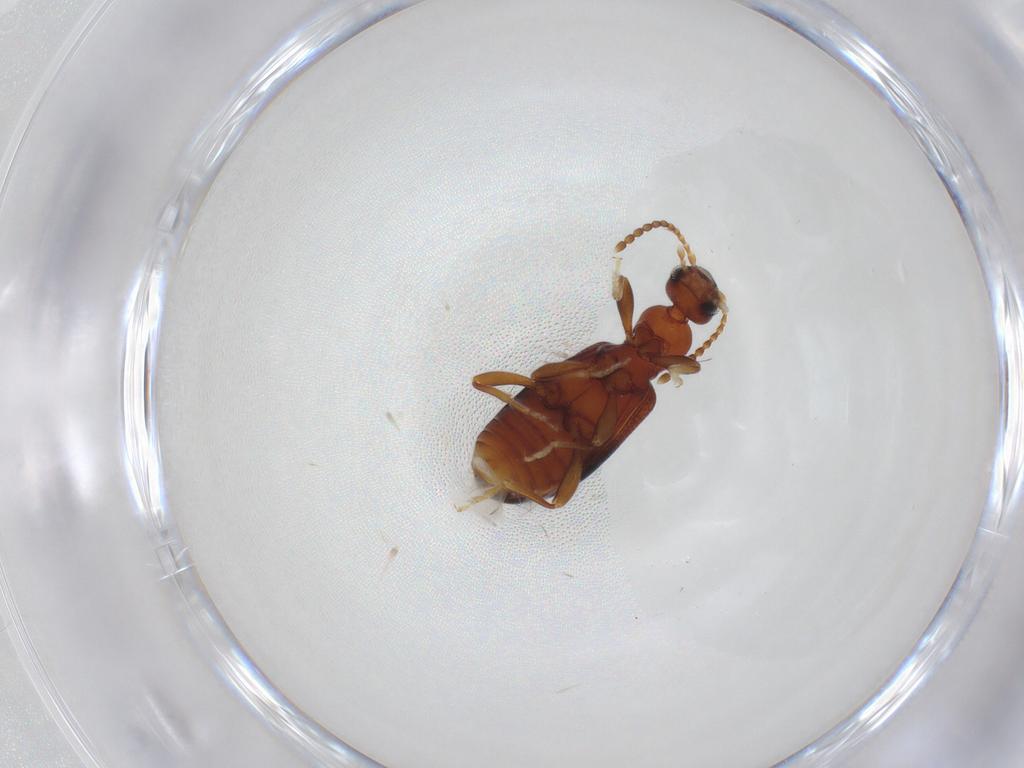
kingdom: Animalia
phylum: Arthropoda
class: Insecta
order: Coleoptera
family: Anthicidae
